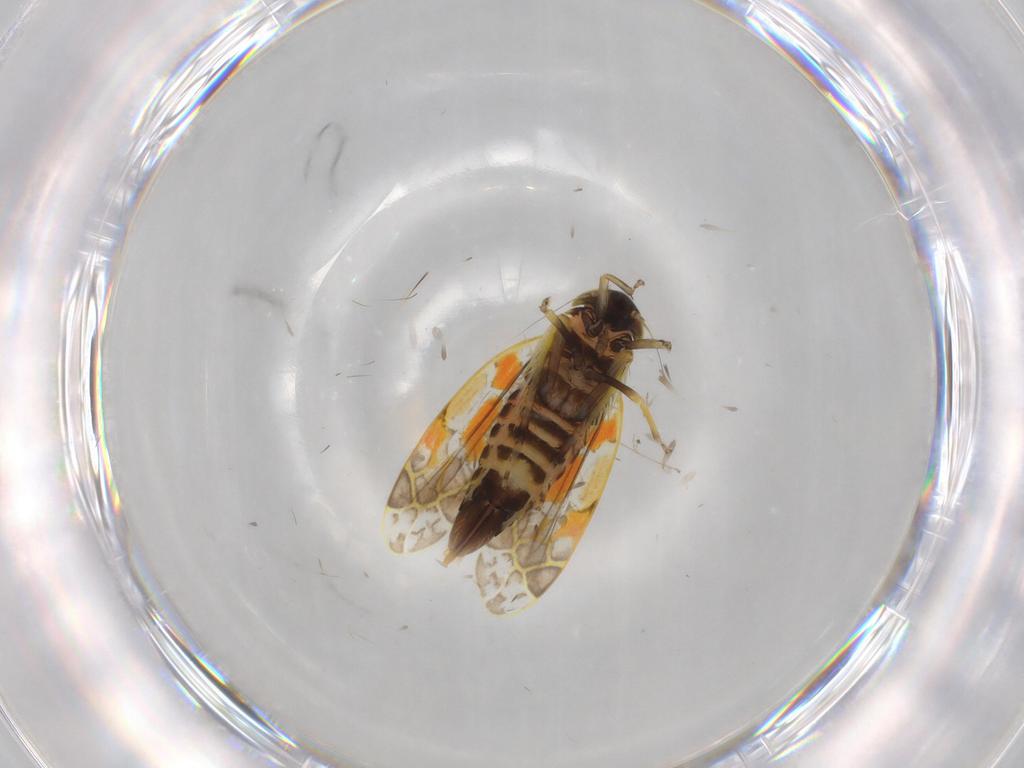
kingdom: Animalia
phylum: Arthropoda
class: Insecta
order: Hemiptera
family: Cicadellidae
